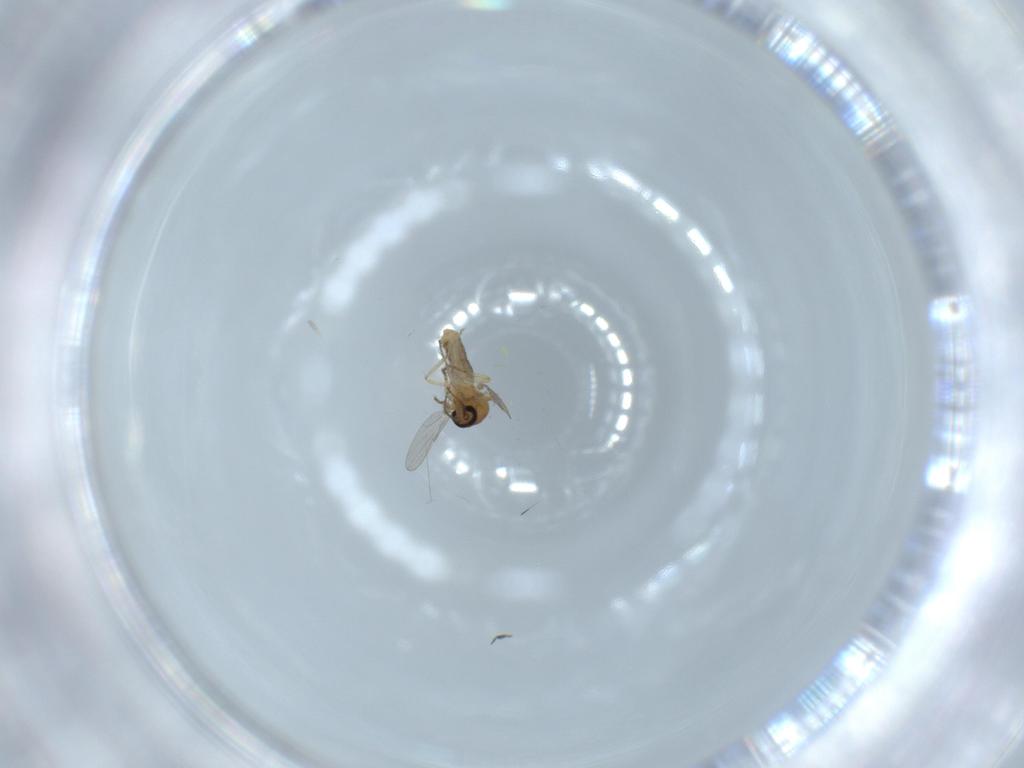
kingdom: Animalia
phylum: Arthropoda
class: Insecta
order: Diptera
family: Ceratopogonidae
